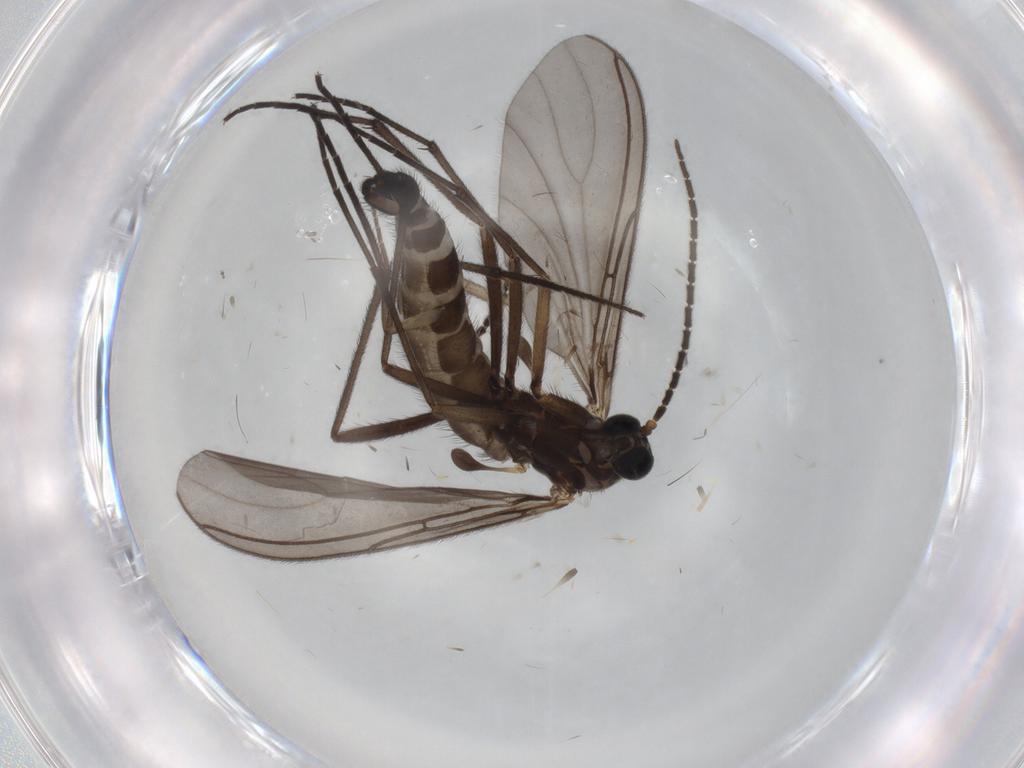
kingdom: Animalia
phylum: Arthropoda
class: Insecta
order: Diptera
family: Sciaridae
